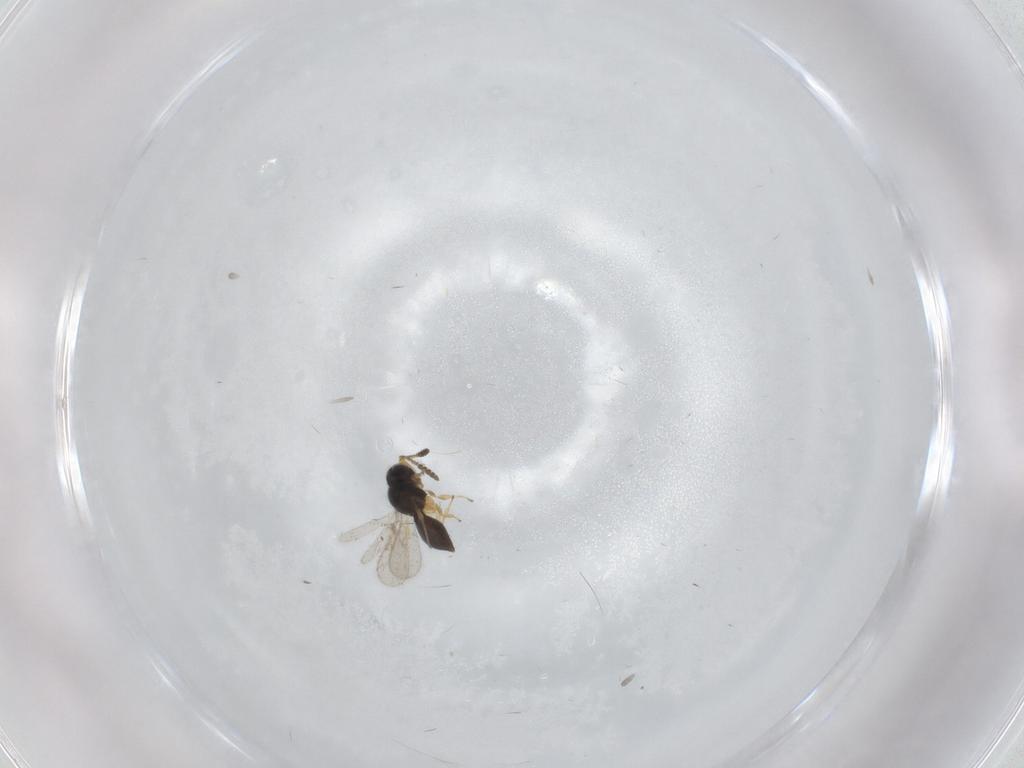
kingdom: Animalia
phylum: Arthropoda
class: Insecta
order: Hymenoptera
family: Scelionidae
